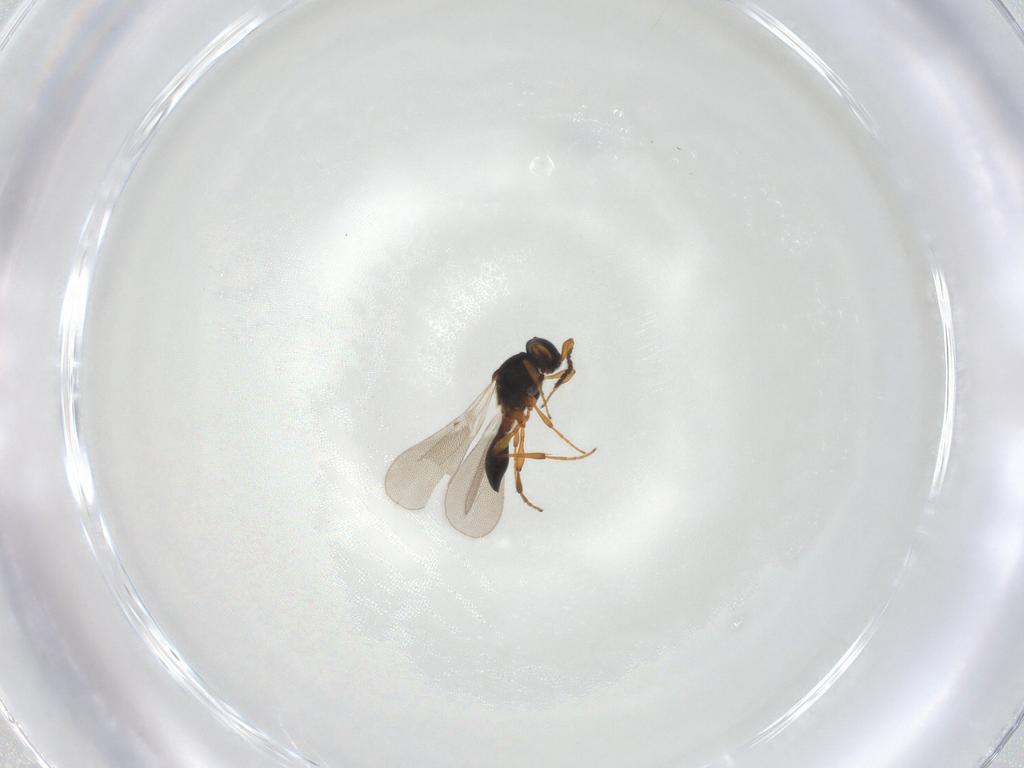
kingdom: Animalia
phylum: Arthropoda
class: Insecta
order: Hymenoptera
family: Platygastridae
